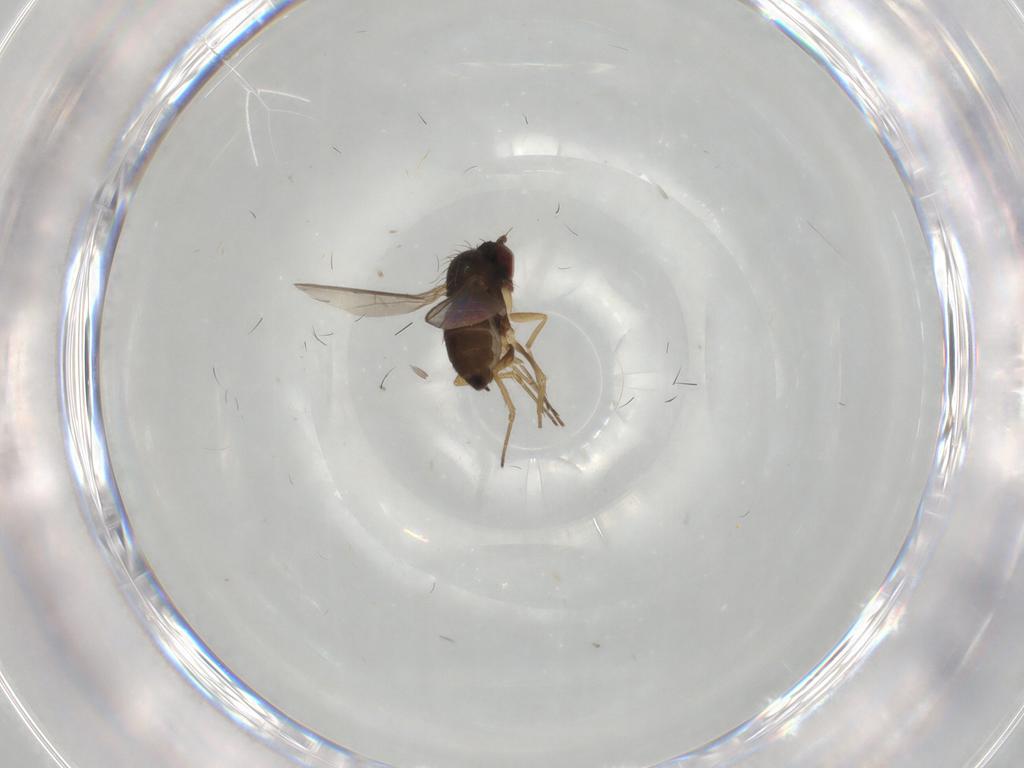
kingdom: Animalia
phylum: Arthropoda
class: Insecta
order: Diptera
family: Dolichopodidae
